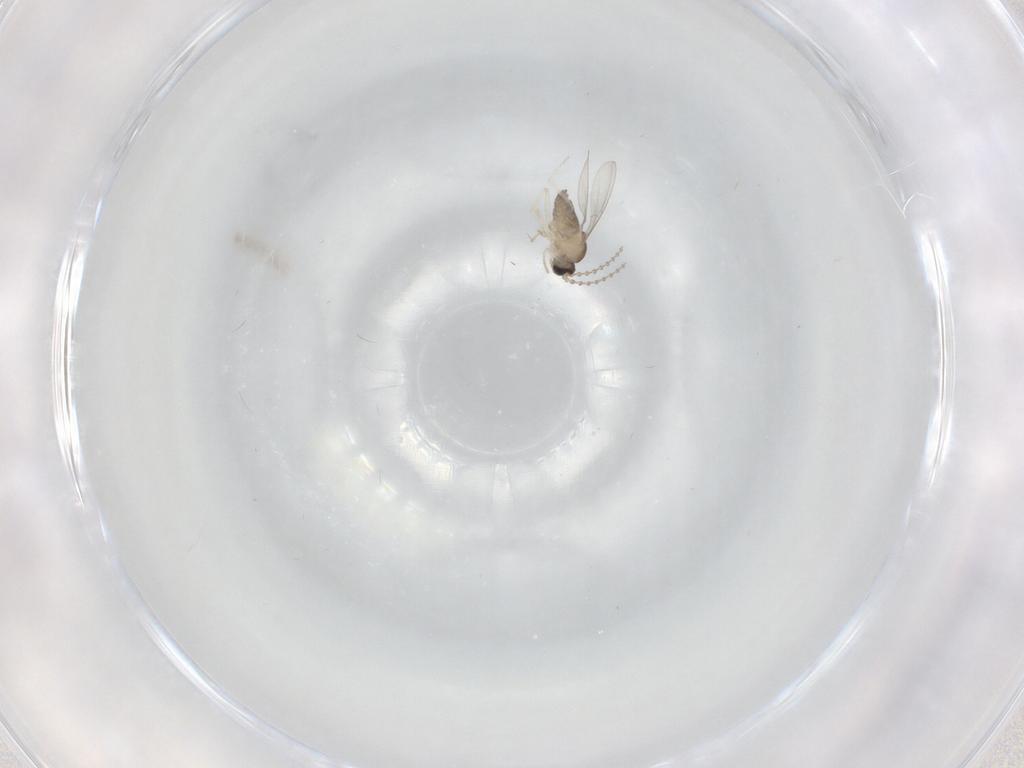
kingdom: Animalia
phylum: Arthropoda
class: Insecta
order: Diptera
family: Cecidomyiidae
